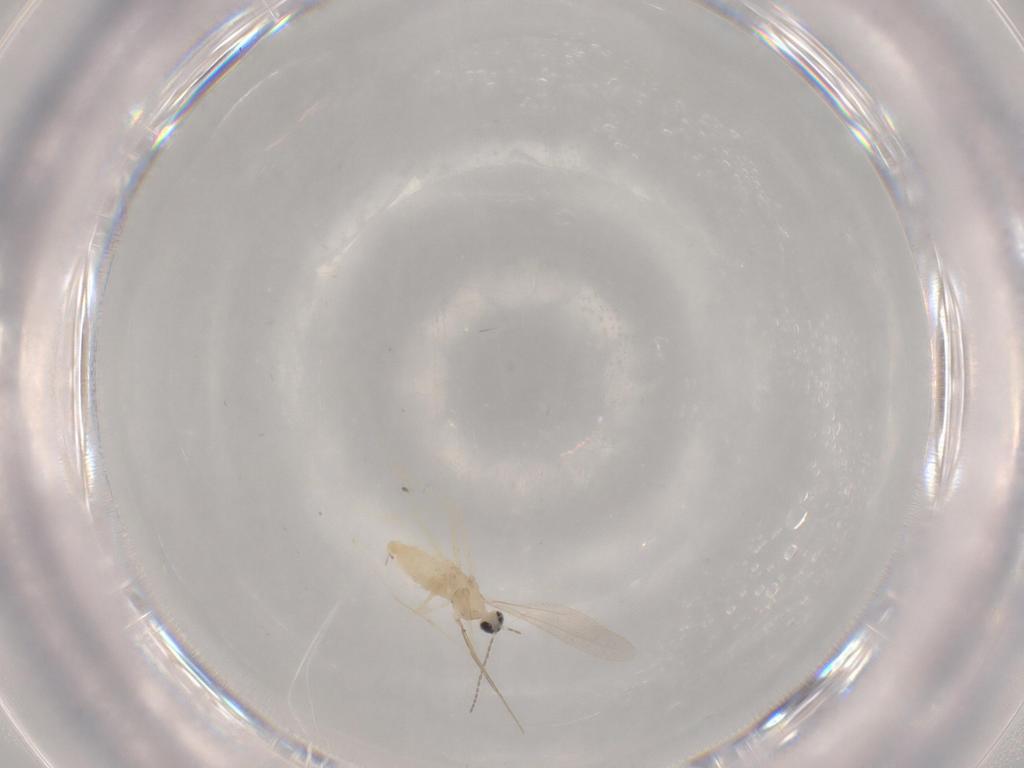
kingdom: Animalia
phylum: Arthropoda
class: Insecta
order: Diptera
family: Cecidomyiidae
